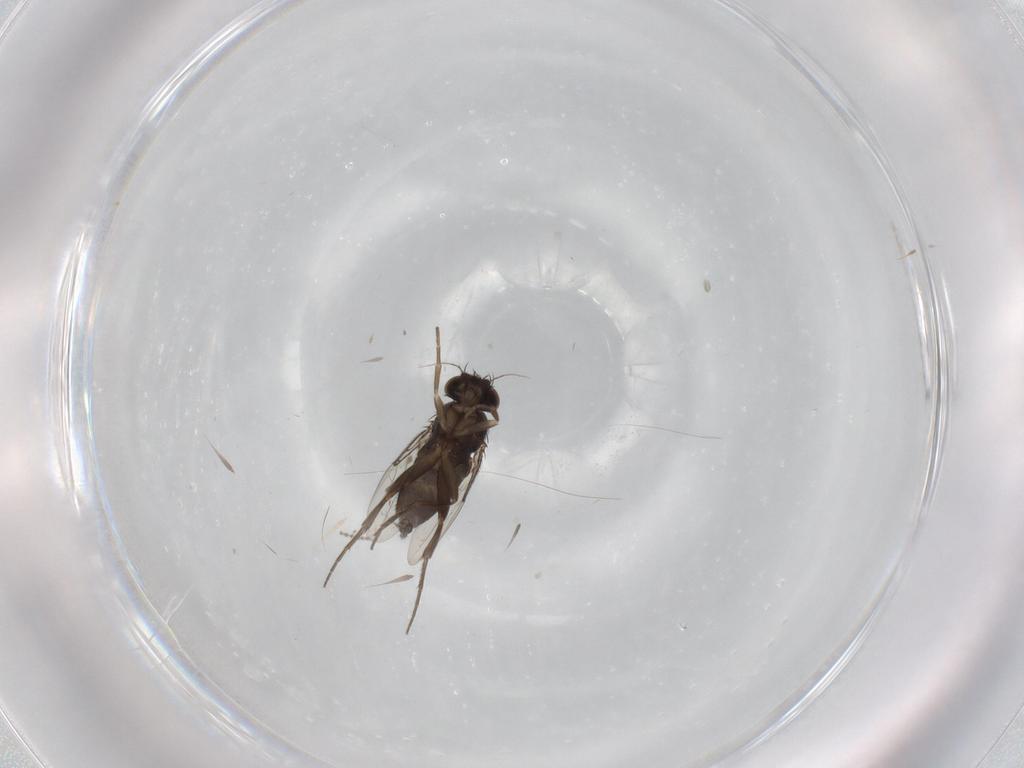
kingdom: Animalia
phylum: Arthropoda
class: Insecta
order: Diptera
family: Phoridae
